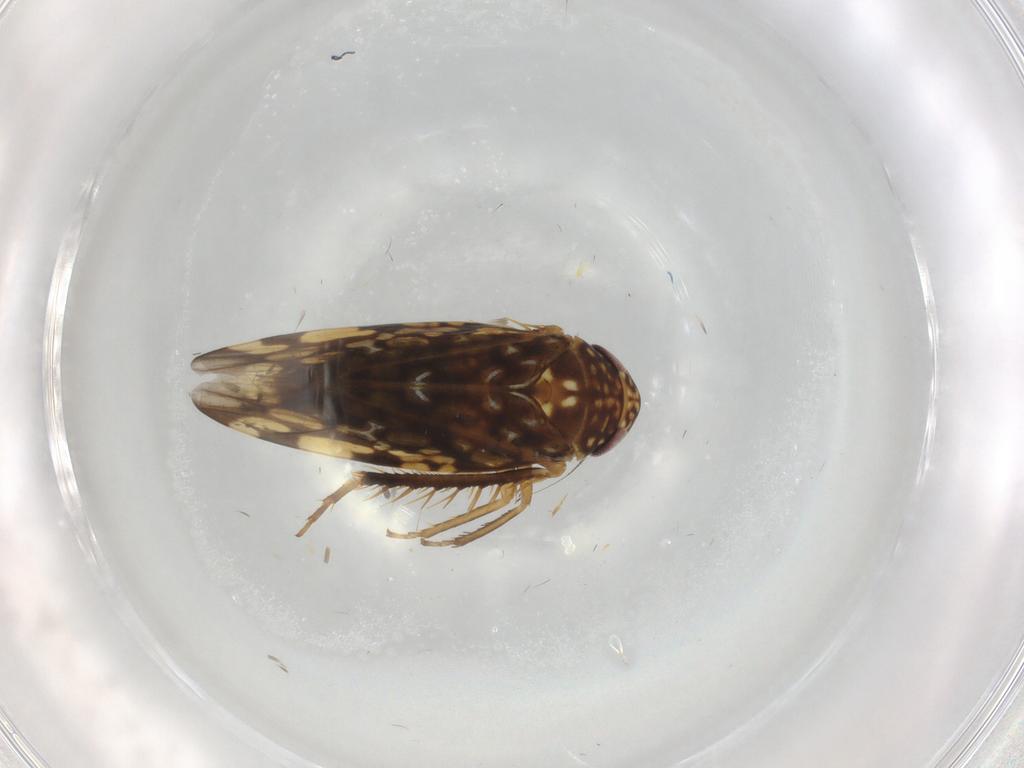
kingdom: Animalia
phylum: Arthropoda
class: Insecta
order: Hemiptera
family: Cicadellidae
